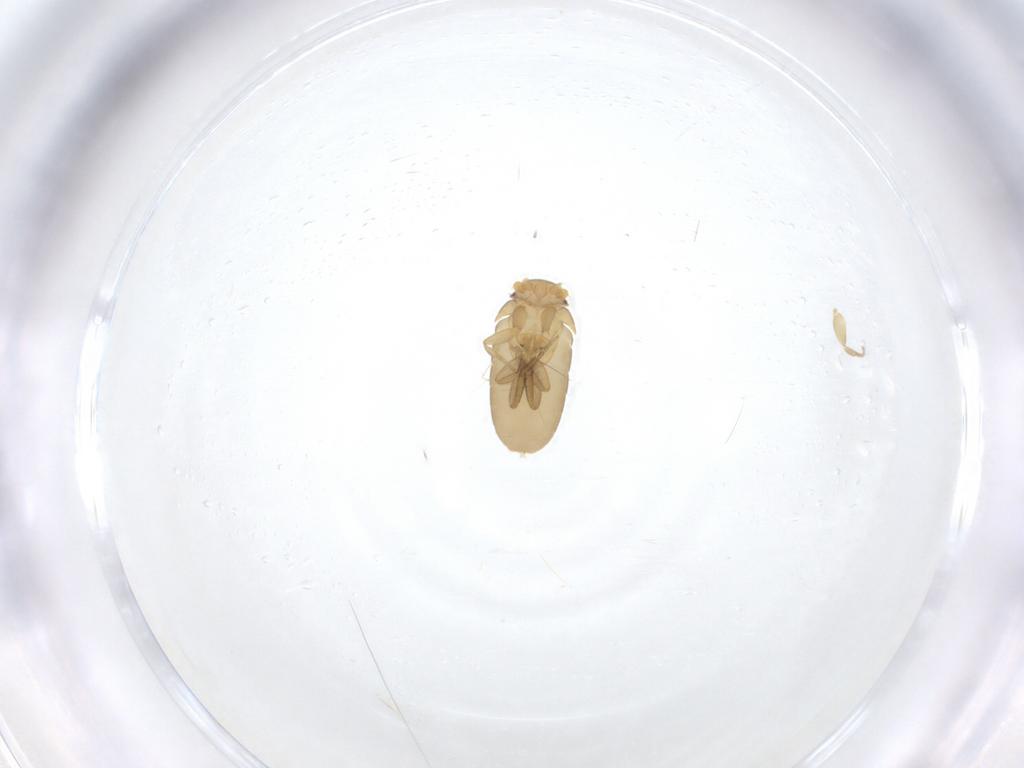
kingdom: Animalia
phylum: Arthropoda
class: Insecta
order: Diptera
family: Phoridae
